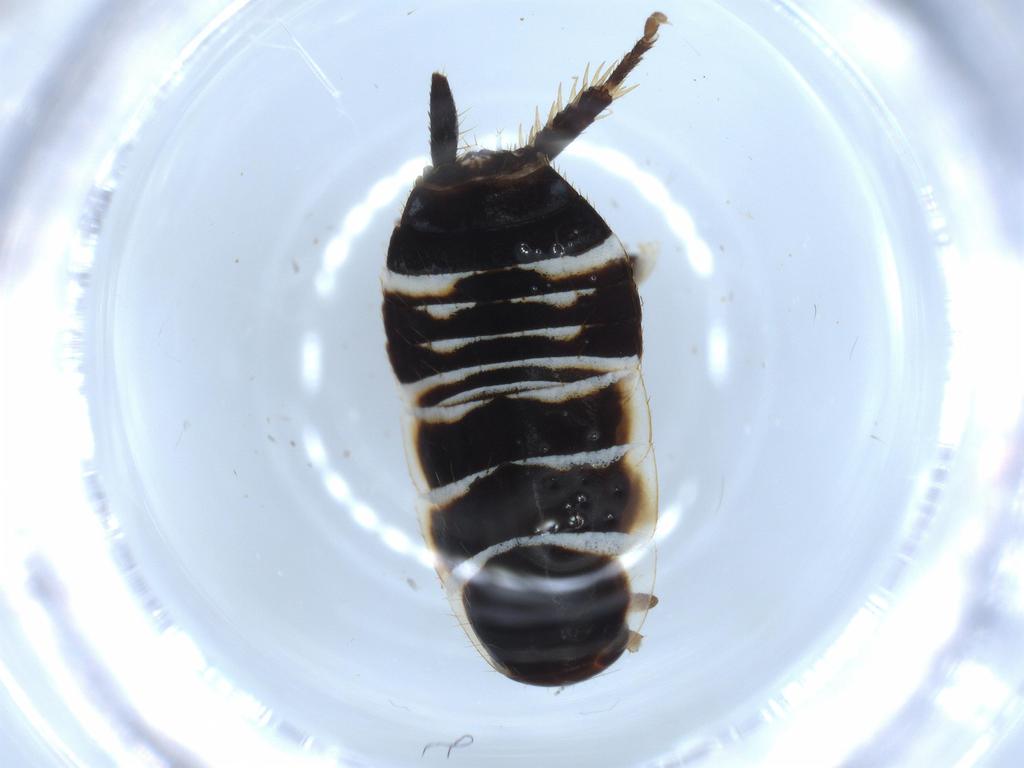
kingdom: Animalia
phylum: Arthropoda
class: Insecta
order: Blattodea
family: Ectobiidae
